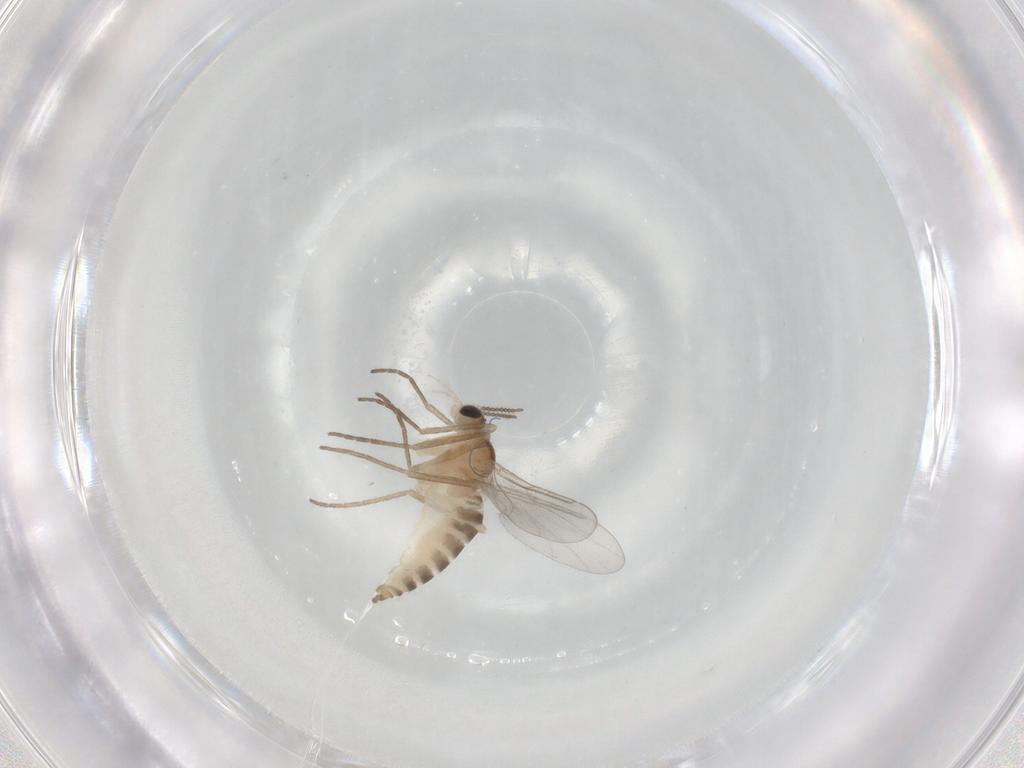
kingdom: Animalia
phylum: Arthropoda
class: Insecta
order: Diptera
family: Cecidomyiidae
